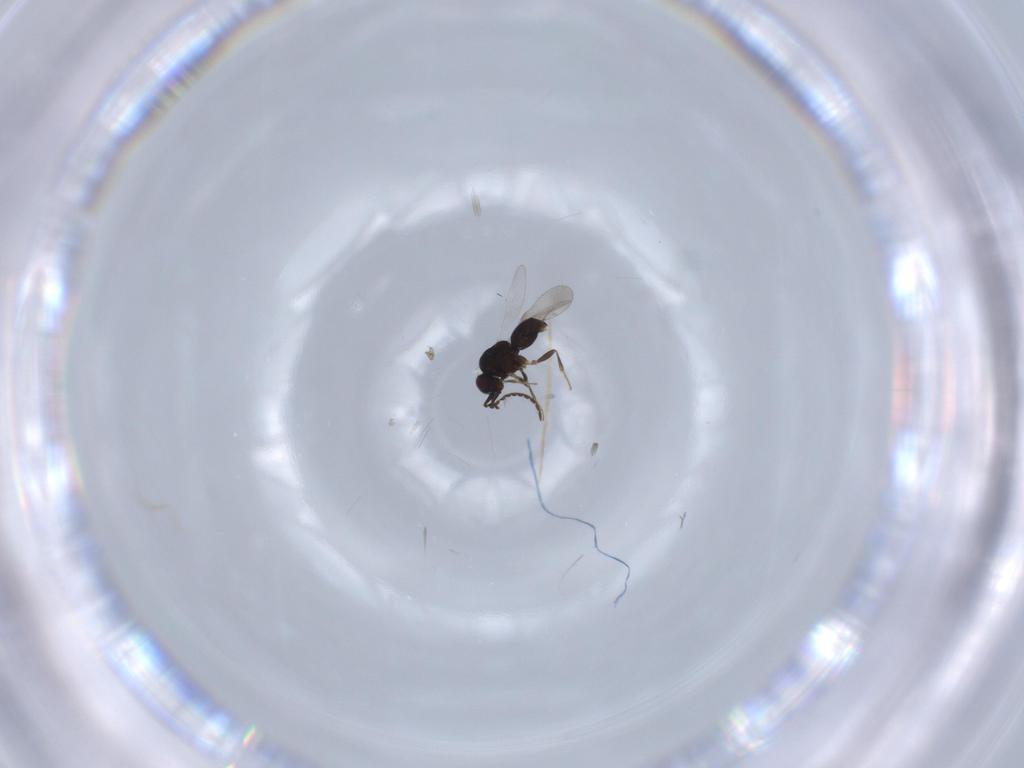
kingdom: Animalia
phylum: Arthropoda
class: Insecta
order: Hymenoptera
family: Ceraphronidae
